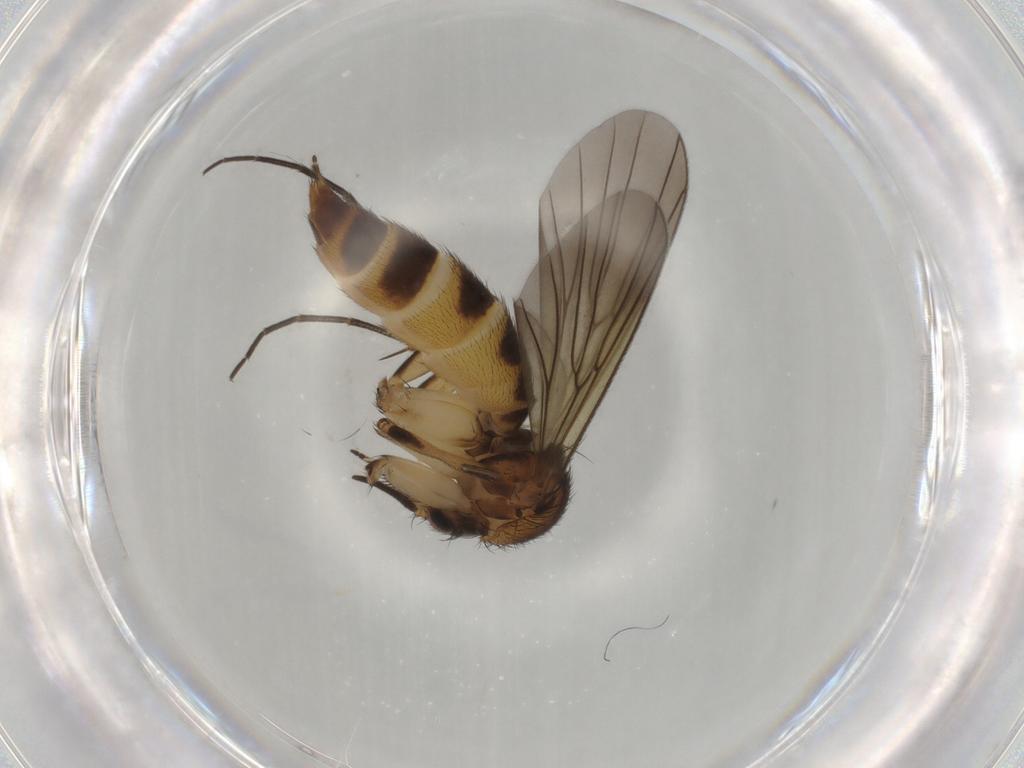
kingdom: Animalia
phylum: Arthropoda
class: Insecta
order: Diptera
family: Mycetophilidae
